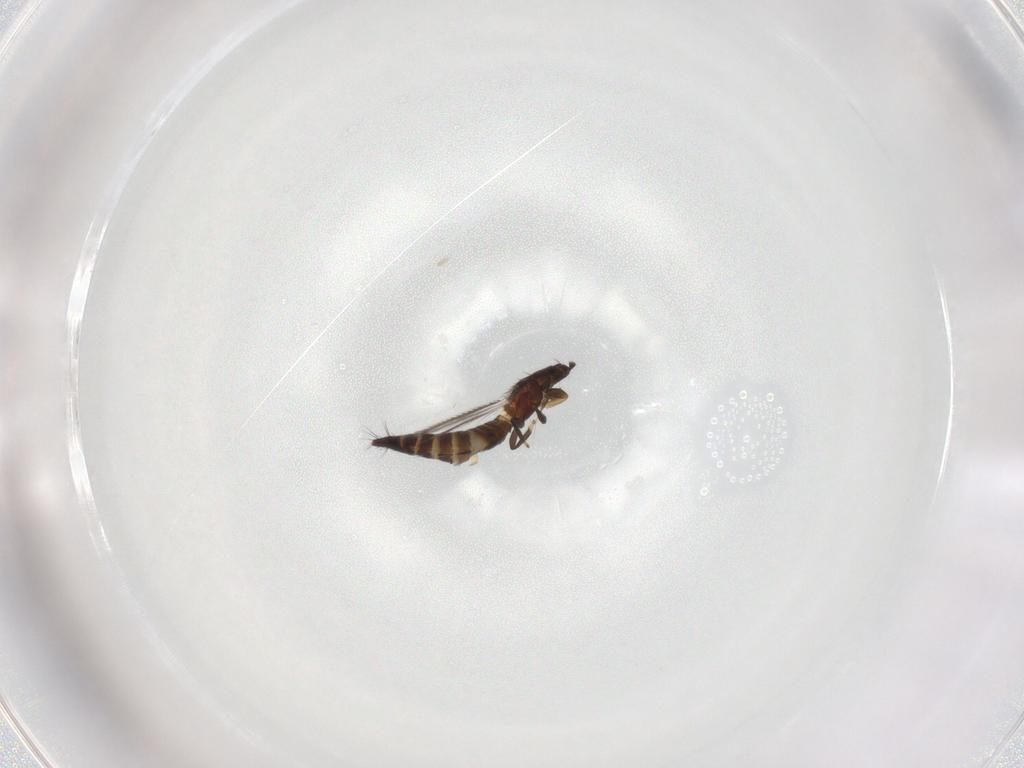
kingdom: Animalia
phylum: Arthropoda
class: Insecta
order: Thysanoptera
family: Thripidae
